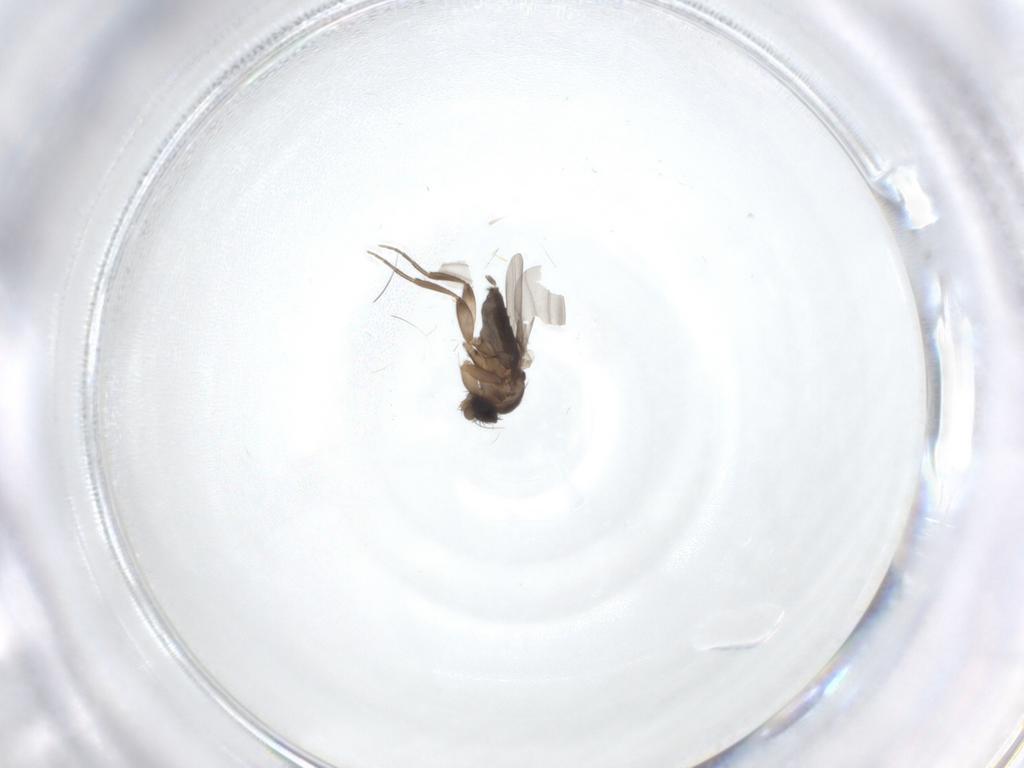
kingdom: Animalia
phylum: Arthropoda
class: Insecta
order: Diptera
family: Phoridae
